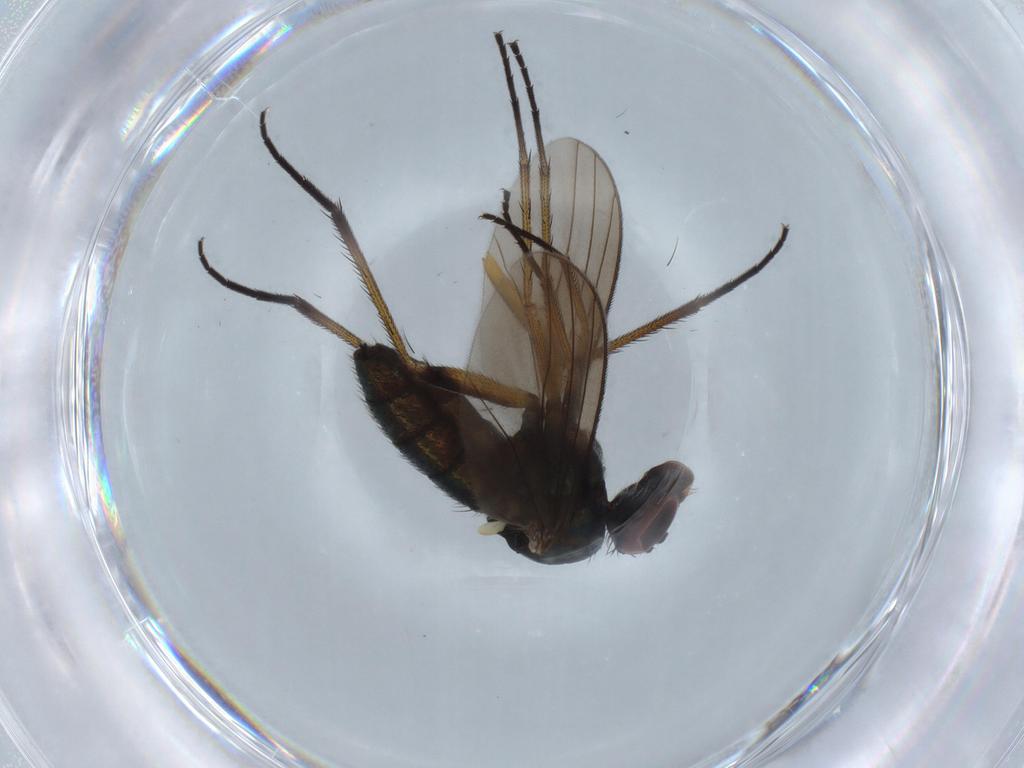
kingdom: Animalia
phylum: Arthropoda
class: Insecta
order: Diptera
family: Dolichopodidae
